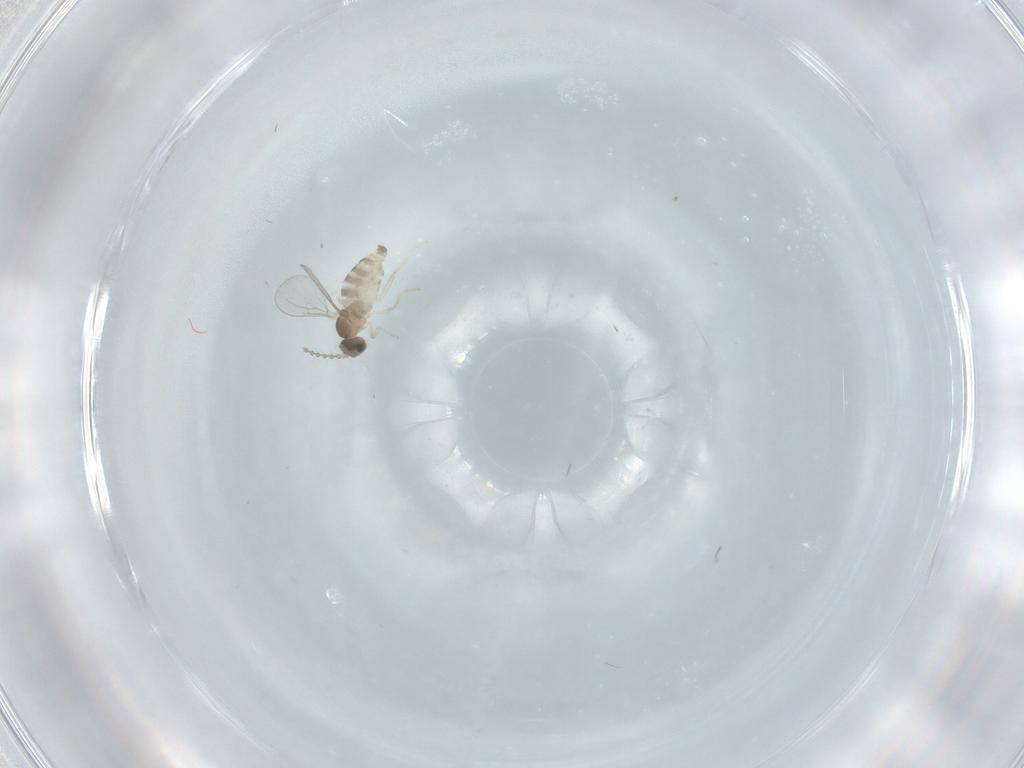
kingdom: Animalia
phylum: Arthropoda
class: Insecta
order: Diptera
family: Cecidomyiidae
